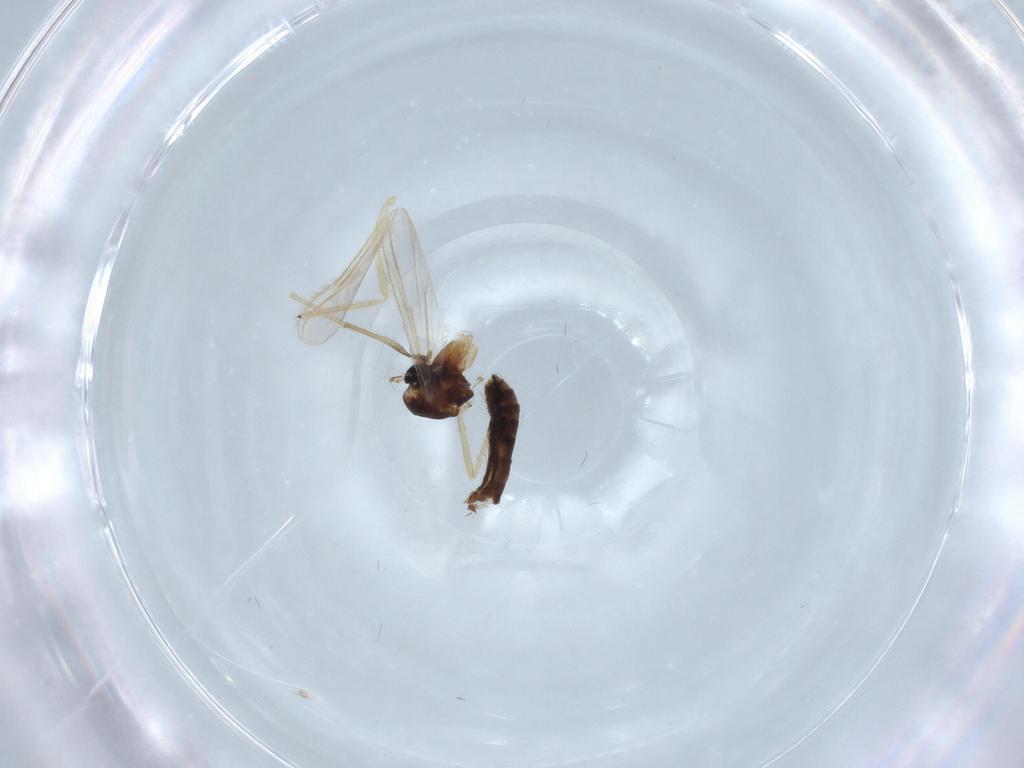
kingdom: Animalia
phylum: Arthropoda
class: Insecta
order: Diptera
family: Chironomidae
